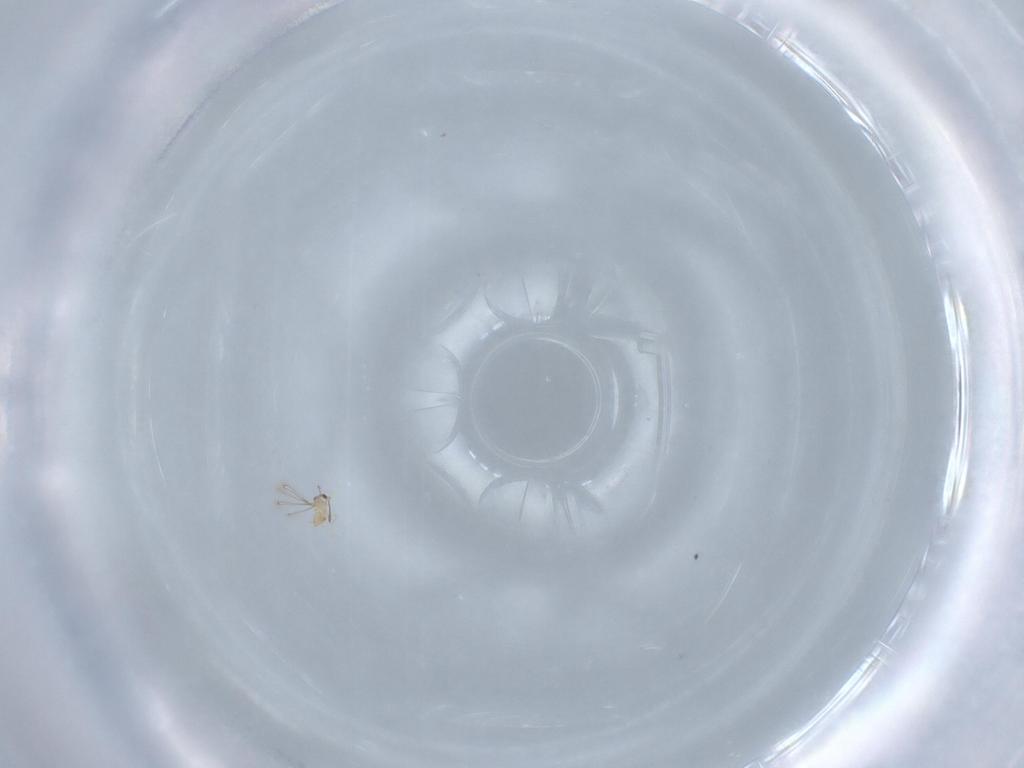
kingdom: Animalia
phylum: Arthropoda
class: Insecta
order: Hymenoptera
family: Mymaridae
